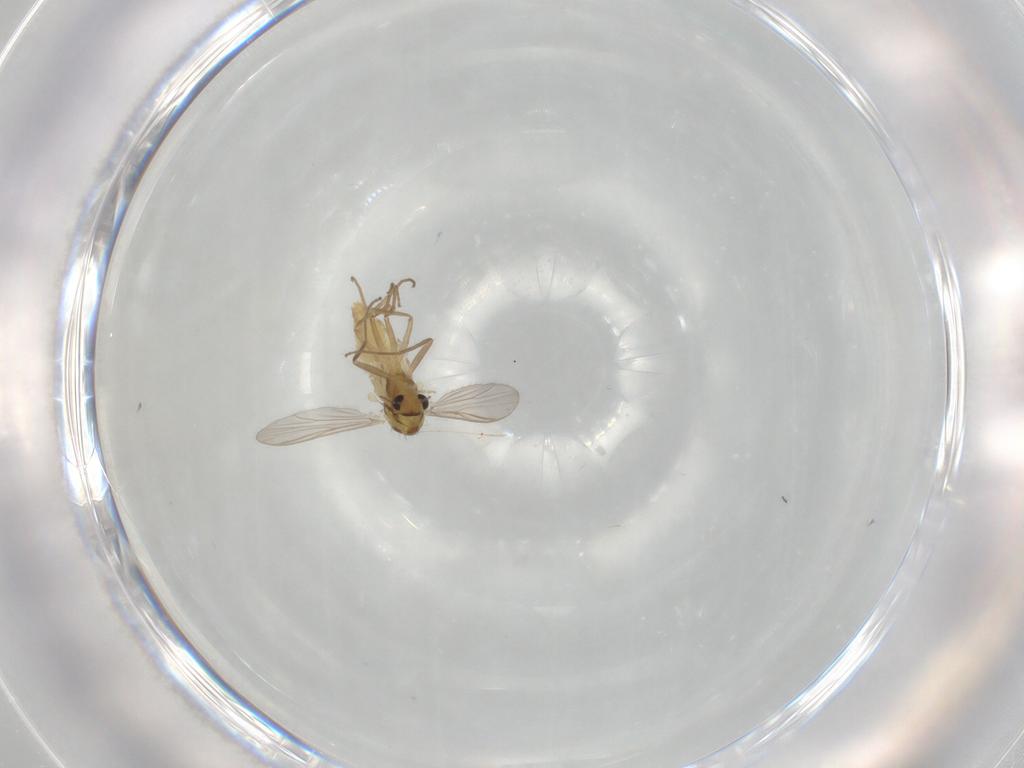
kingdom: Animalia
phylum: Arthropoda
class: Insecta
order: Diptera
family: Chironomidae
